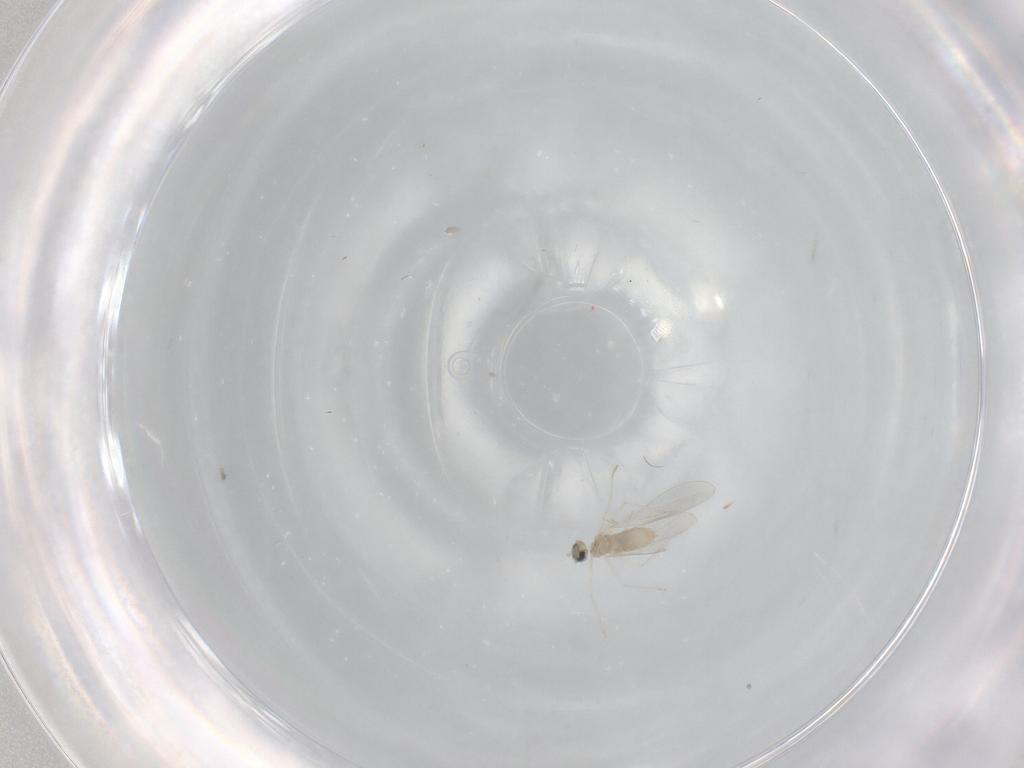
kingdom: Animalia
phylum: Arthropoda
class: Insecta
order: Diptera
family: Cecidomyiidae
